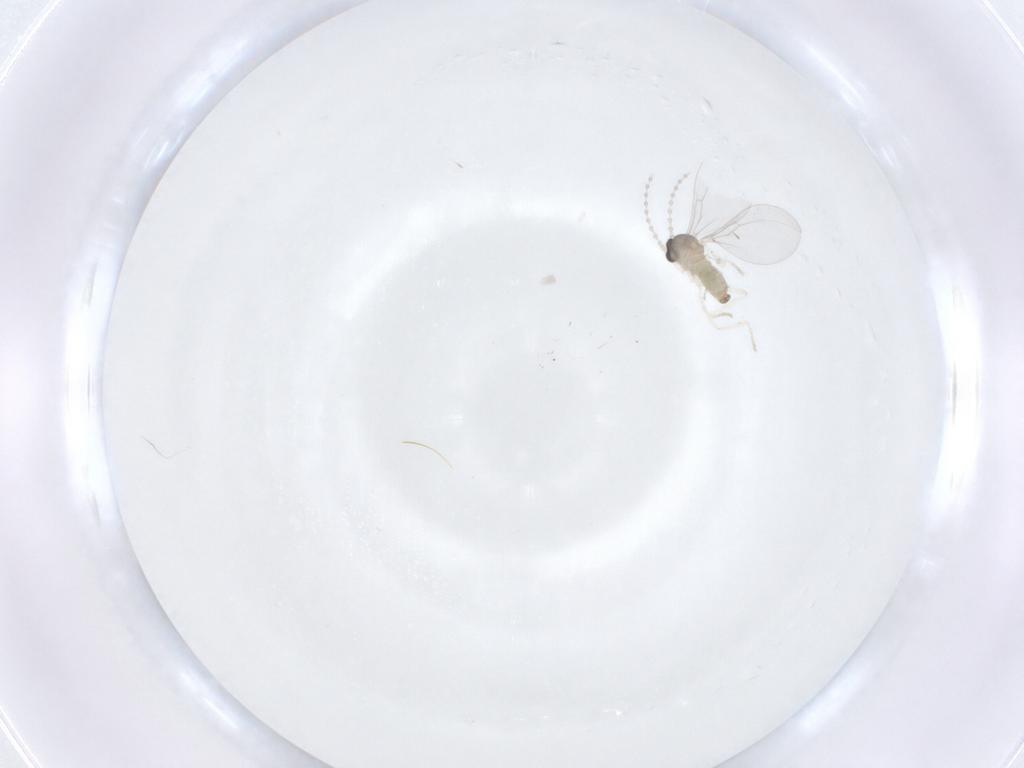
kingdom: Animalia
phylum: Arthropoda
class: Insecta
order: Diptera
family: Cecidomyiidae
